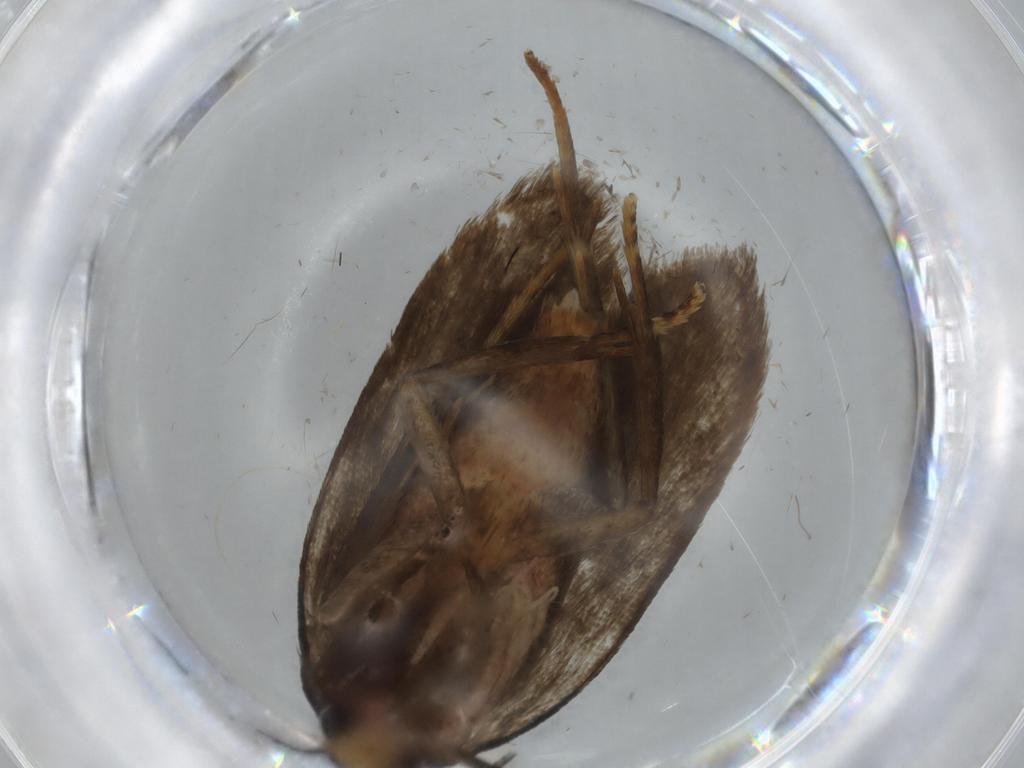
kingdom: Animalia
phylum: Arthropoda
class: Insecta
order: Lepidoptera
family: Autostichidae
